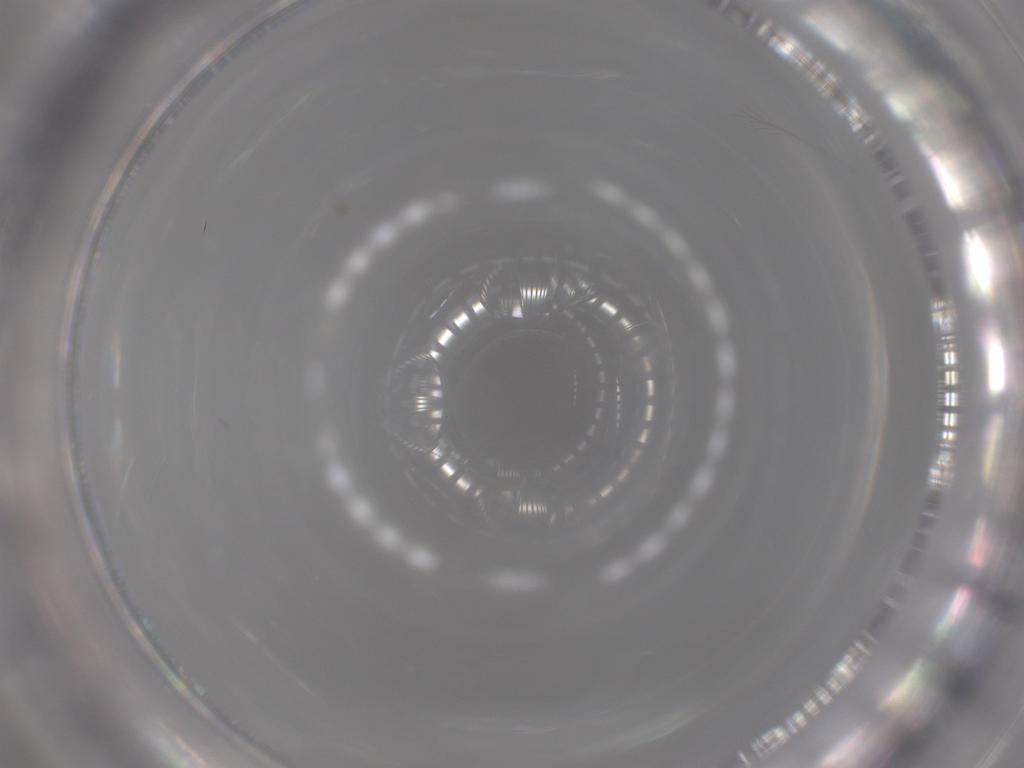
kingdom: Animalia
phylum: Arthropoda
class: Insecta
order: Diptera
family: Cecidomyiidae
